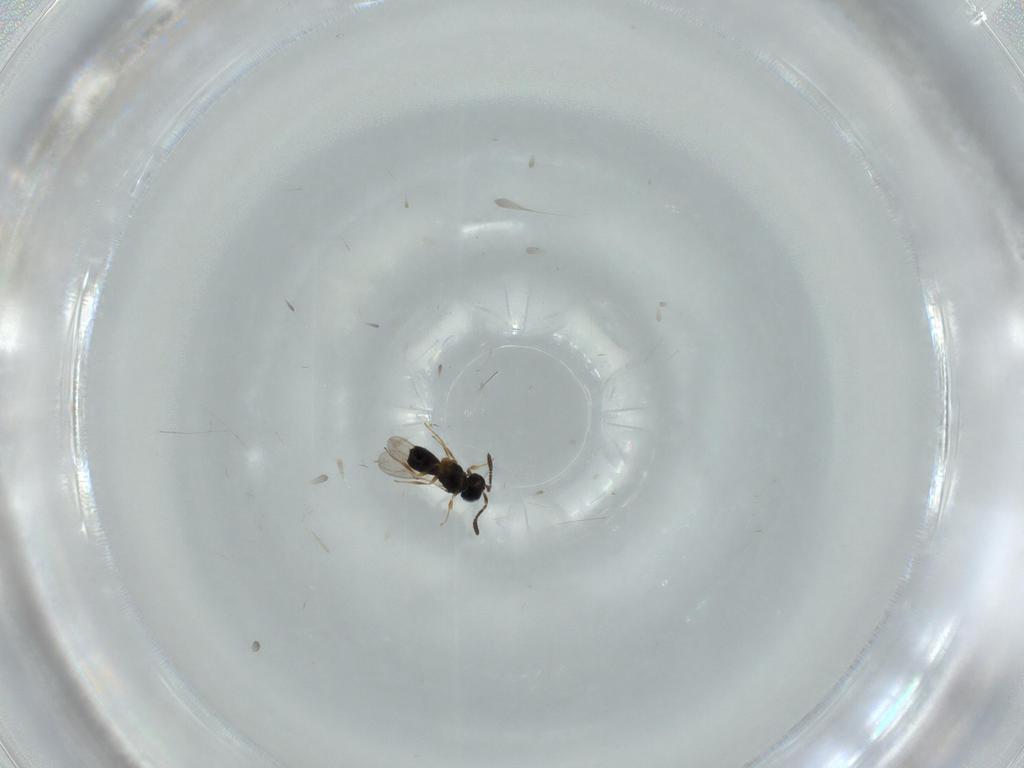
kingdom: Animalia
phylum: Arthropoda
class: Insecta
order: Hymenoptera
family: Scelionidae
